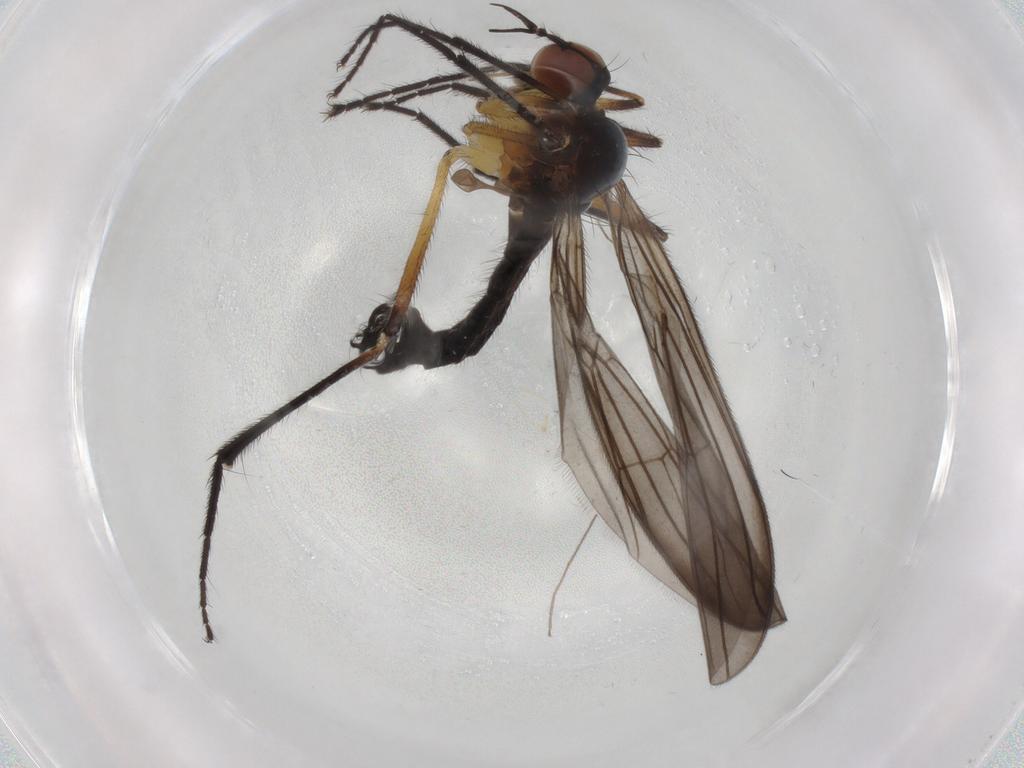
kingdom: Animalia
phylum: Arthropoda
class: Insecta
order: Diptera
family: Empididae
